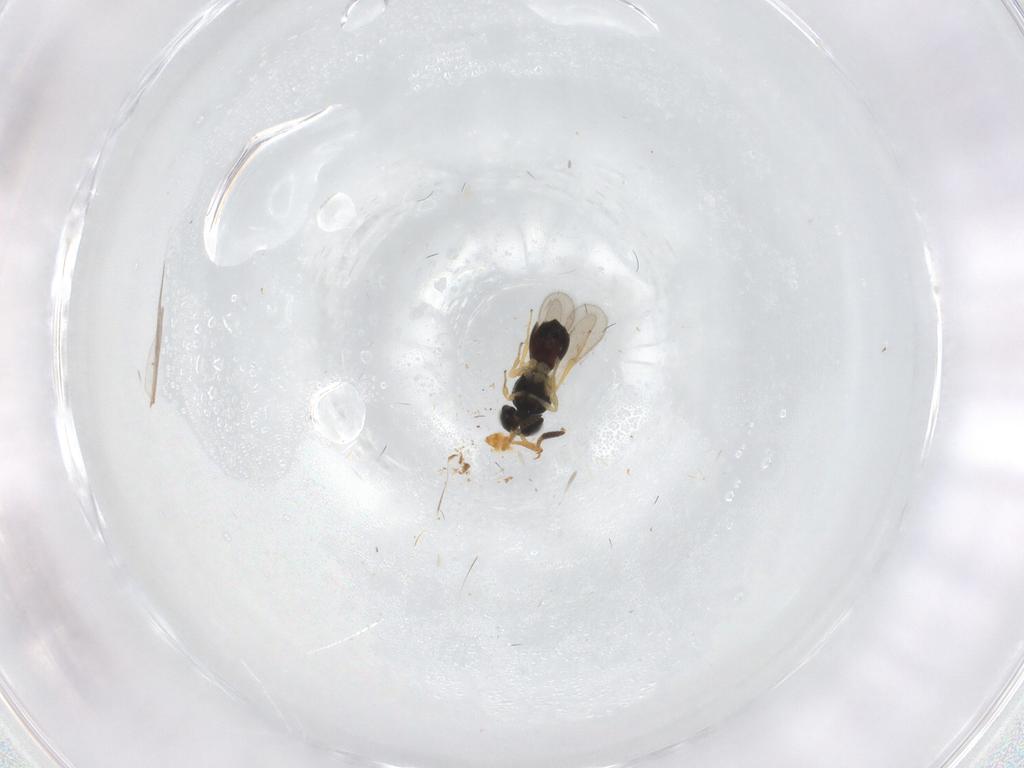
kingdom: Animalia
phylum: Arthropoda
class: Insecta
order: Hymenoptera
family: Scelionidae
